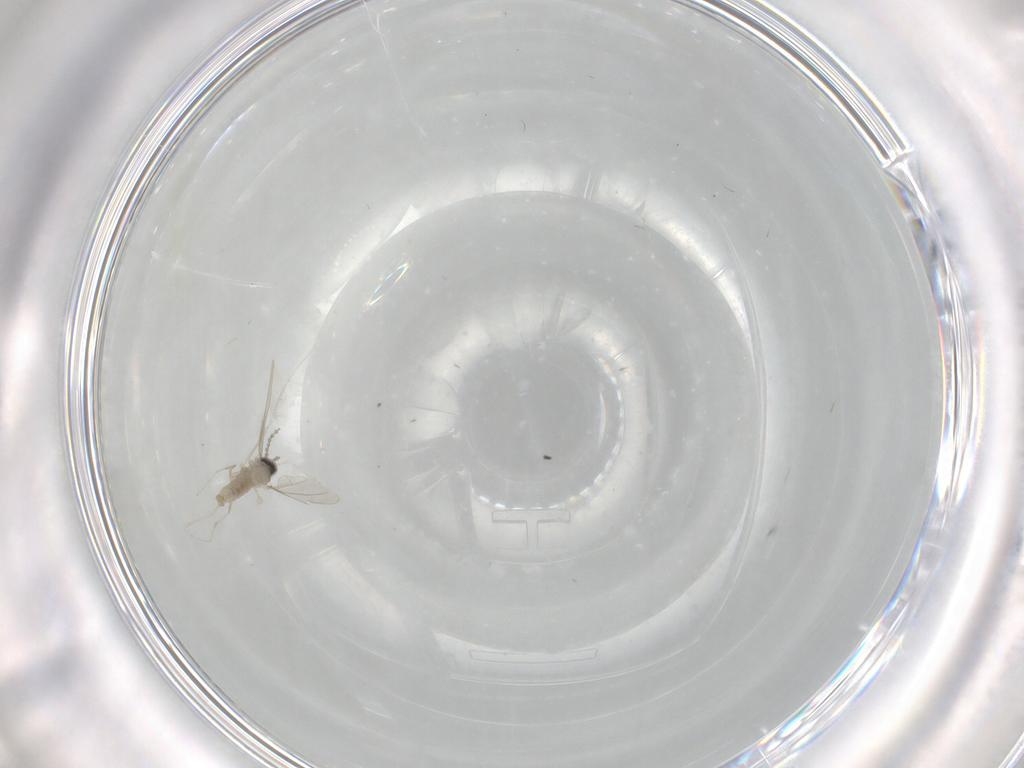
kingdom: Animalia
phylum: Arthropoda
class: Insecta
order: Diptera
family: Cecidomyiidae
